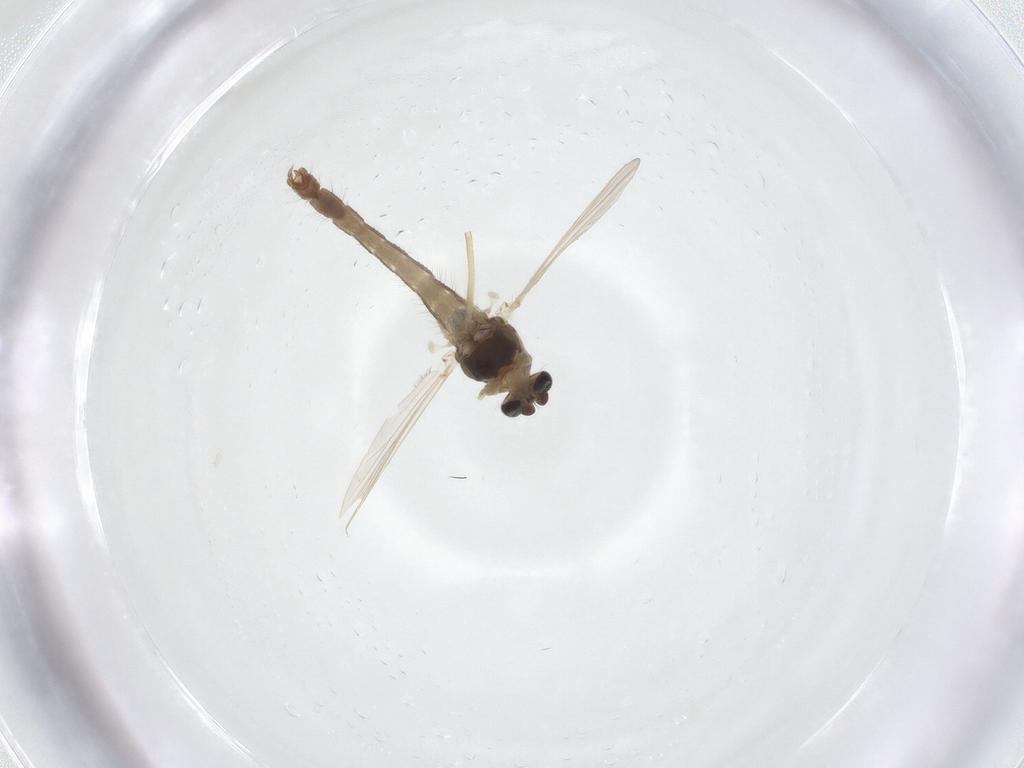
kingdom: Animalia
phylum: Arthropoda
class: Insecta
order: Diptera
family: Chironomidae
